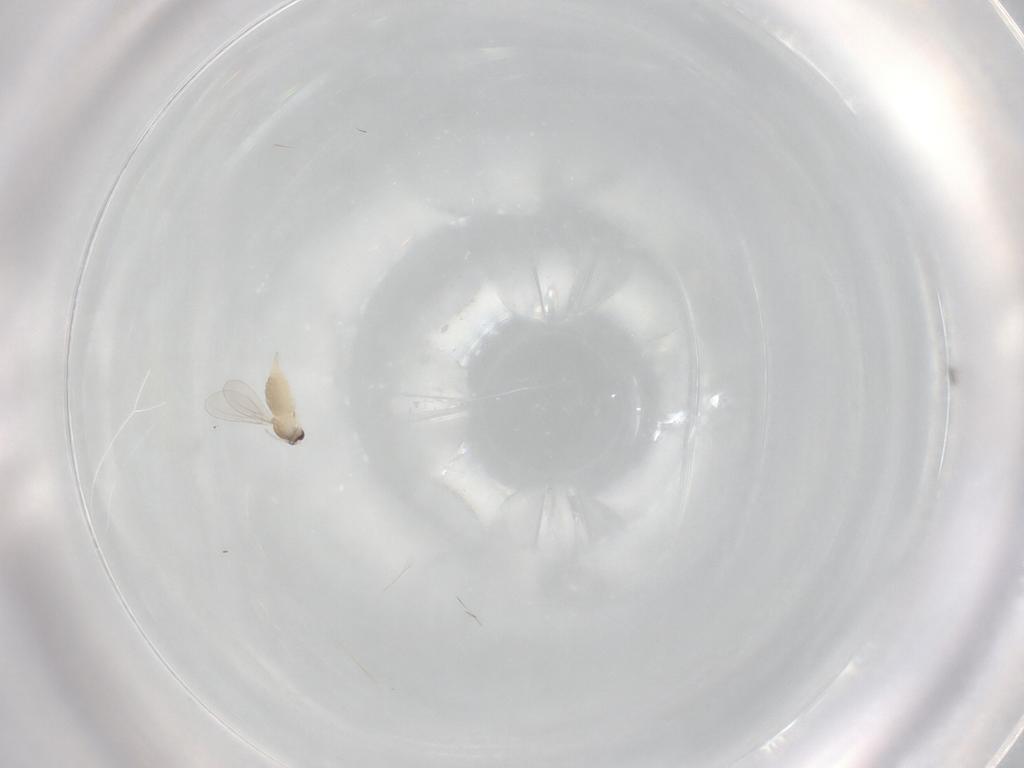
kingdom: Animalia
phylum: Arthropoda
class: Insecta
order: Diptera
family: Cecidomyiidae
